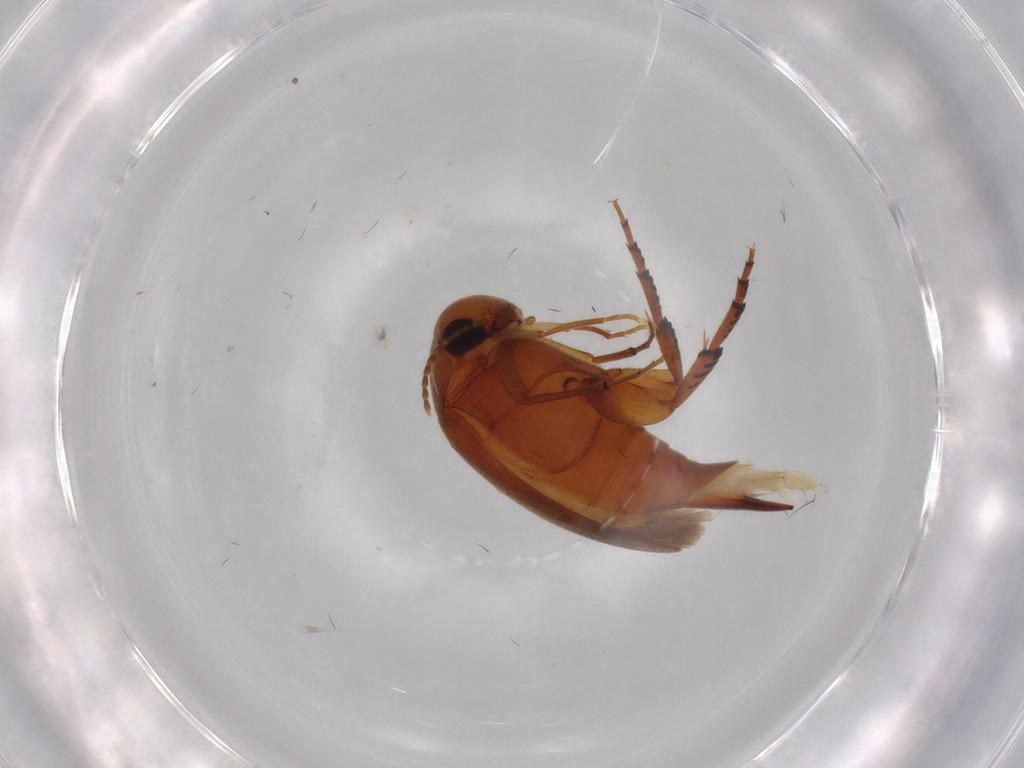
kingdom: Animalia
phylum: Arthropoda
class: Insecta
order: Coleoptera
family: Mordellidae
